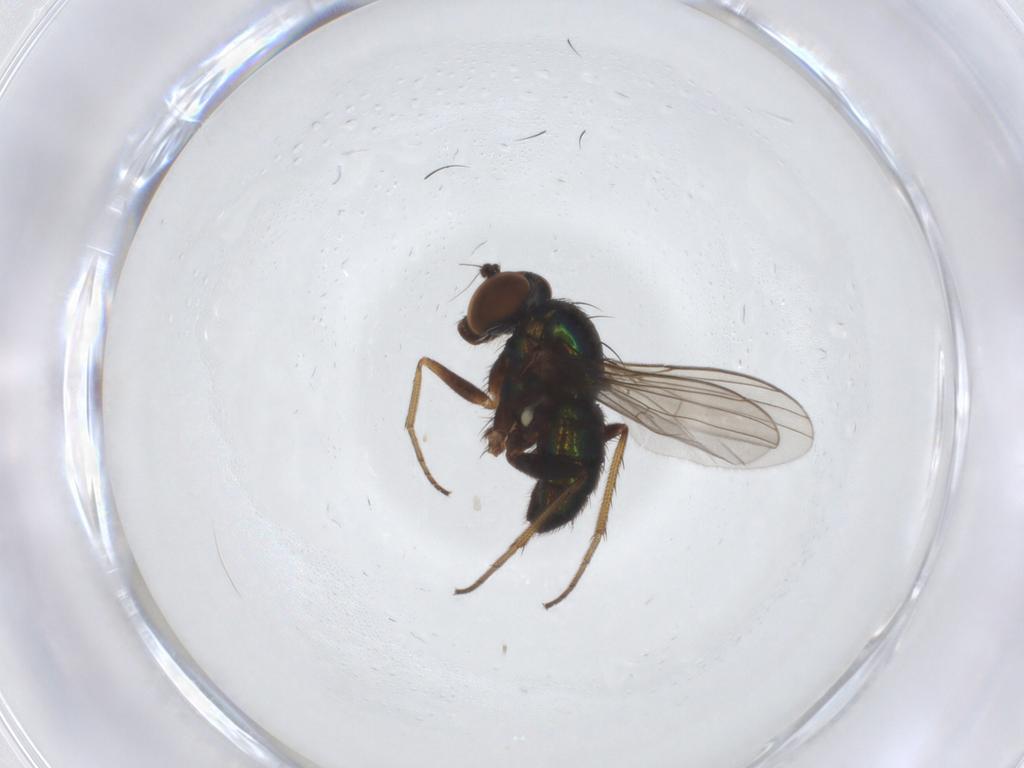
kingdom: Animalia
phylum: Arthropoda
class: Insecta
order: Diptera
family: Dolichopodidae
